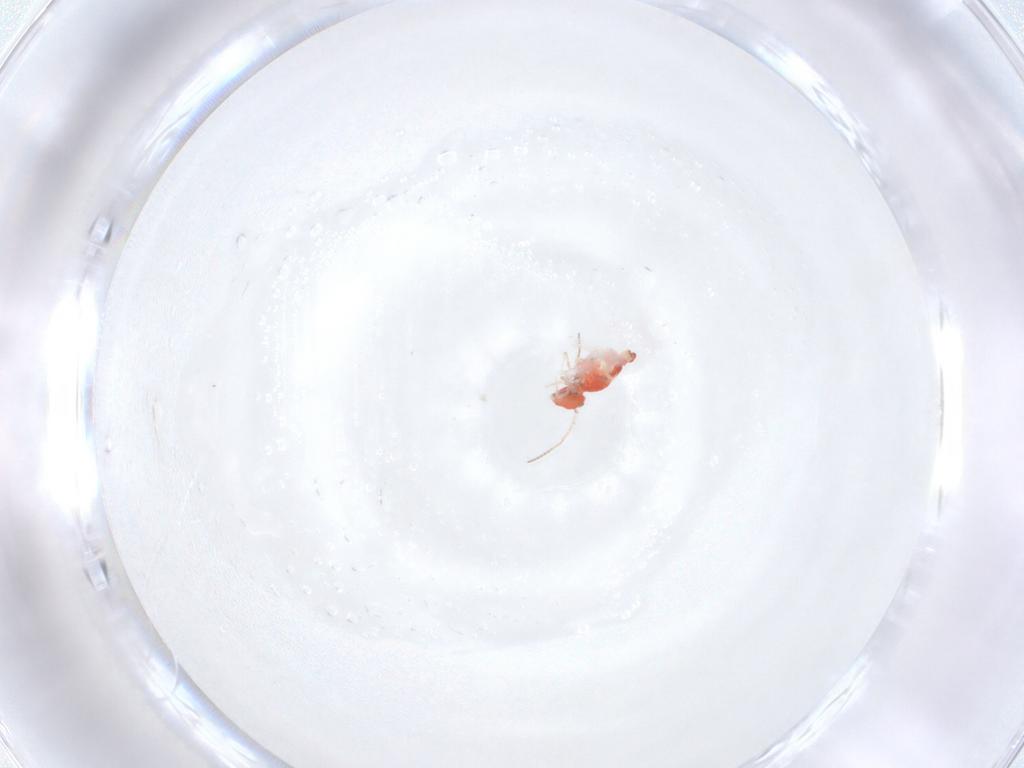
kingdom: Animalia
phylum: Arthropoda
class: Collembola
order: Symphypleona
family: Bourletiellidae
